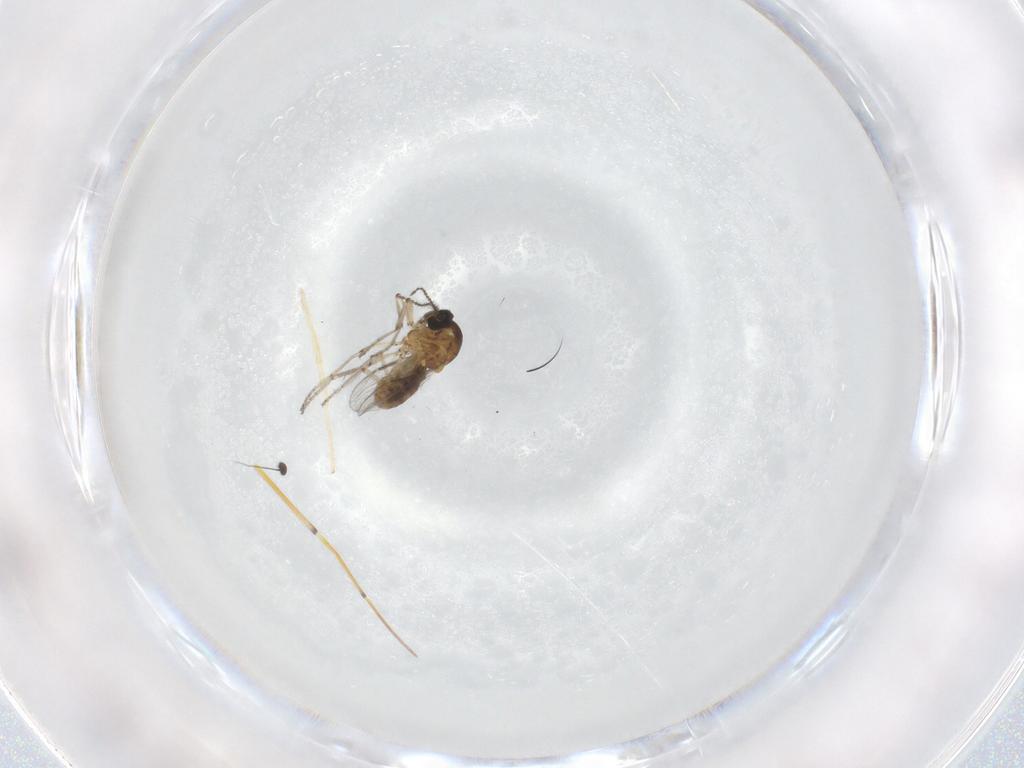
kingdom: Animalia
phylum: Arthropoda
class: Insecta
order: Diptera
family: Ceratopogonidae
